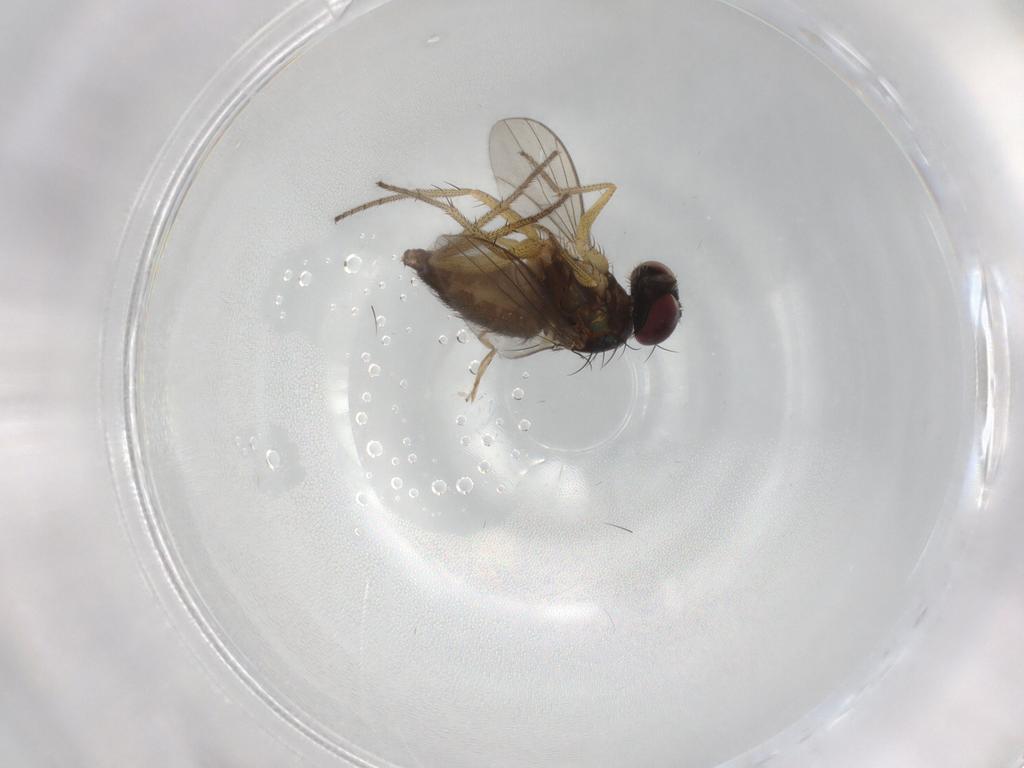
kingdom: Animalia
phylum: Arthropoda
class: Insecta
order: Diptera
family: Dolichopodidae
